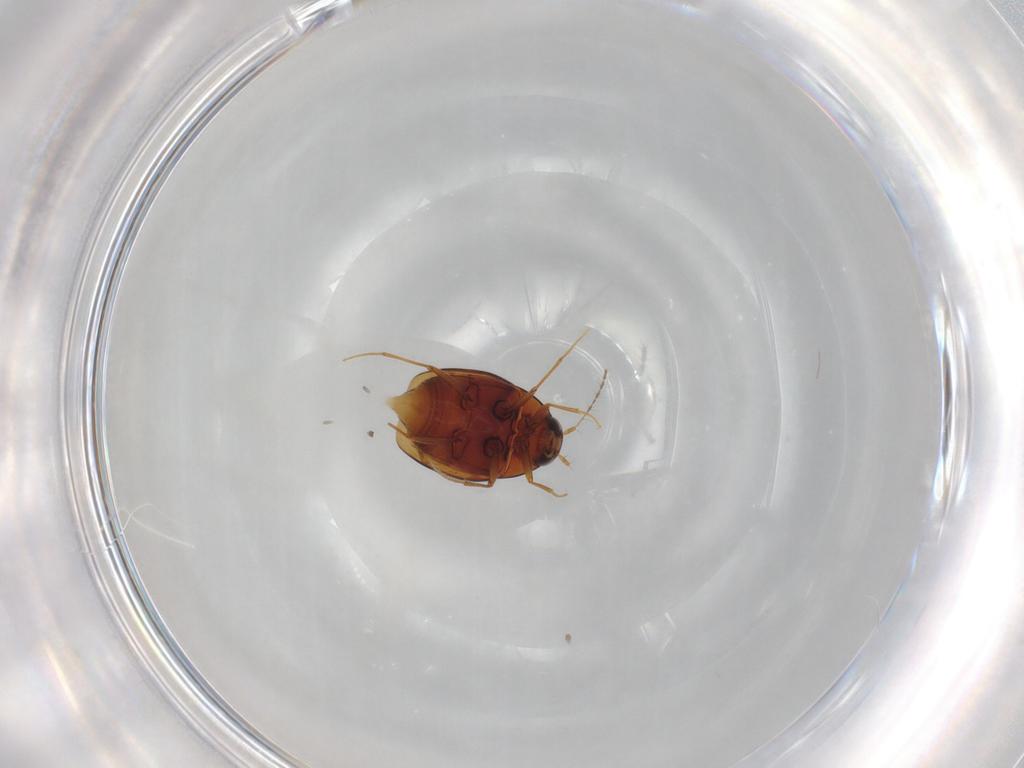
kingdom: Animalia
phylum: Arthropoda
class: Insecta
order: Coleoptera
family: Staphylinidae
